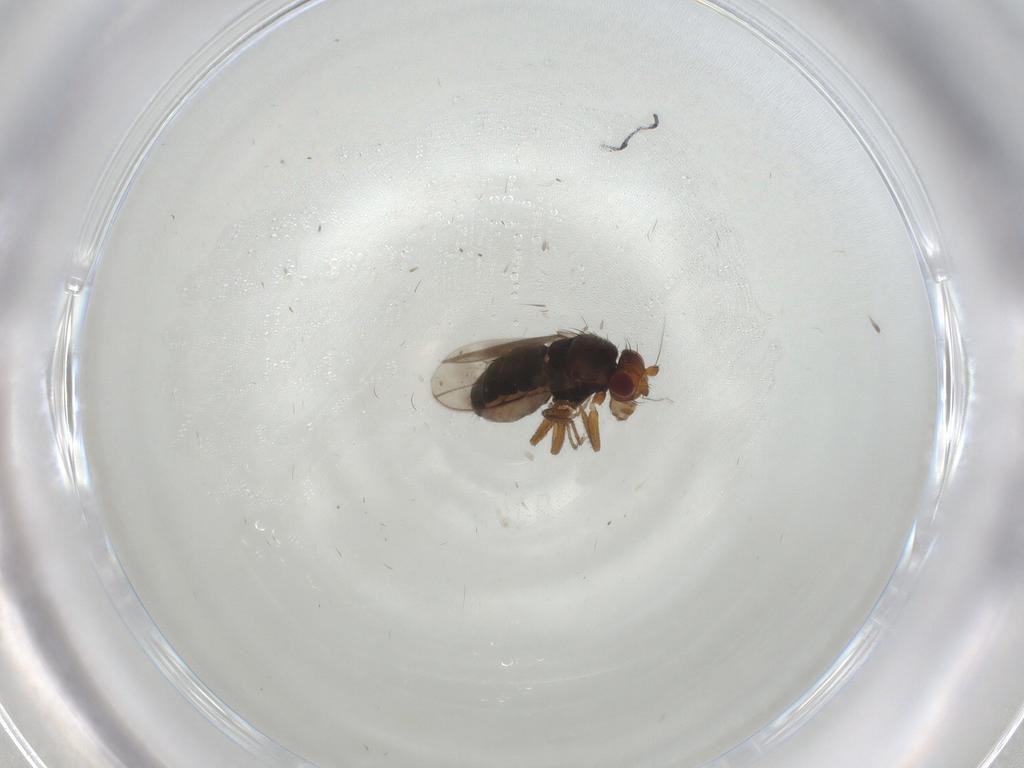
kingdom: Animalia
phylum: Arthropoda
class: Insecta
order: Diptera
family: Sphaeroceridae
